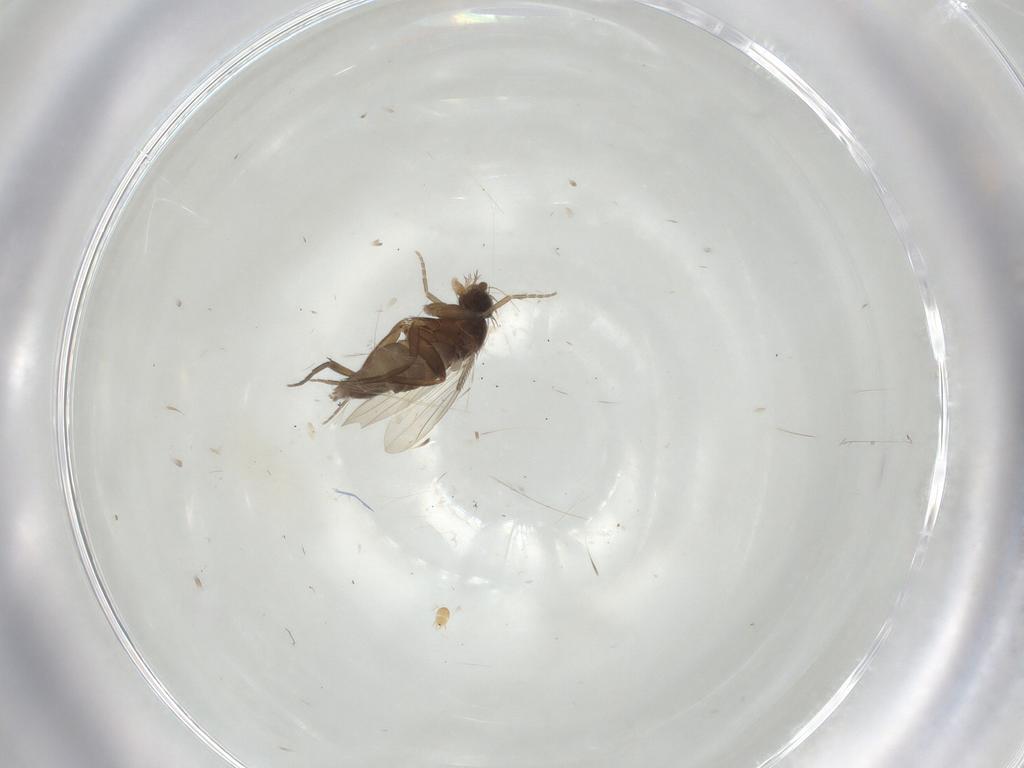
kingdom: Animalia
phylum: Arthropoda
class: Insecta
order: Diptera
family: Phoridae
